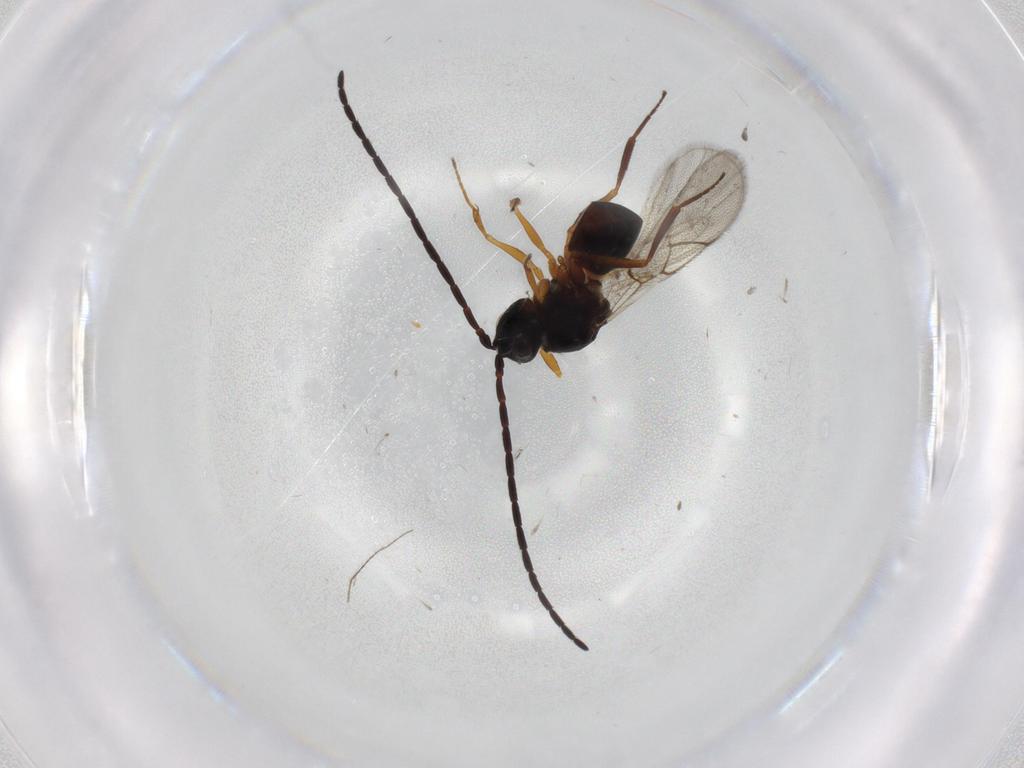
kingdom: Animalia
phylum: Arthropoda
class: Insecta
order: Hymenoptera
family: Figitidae
